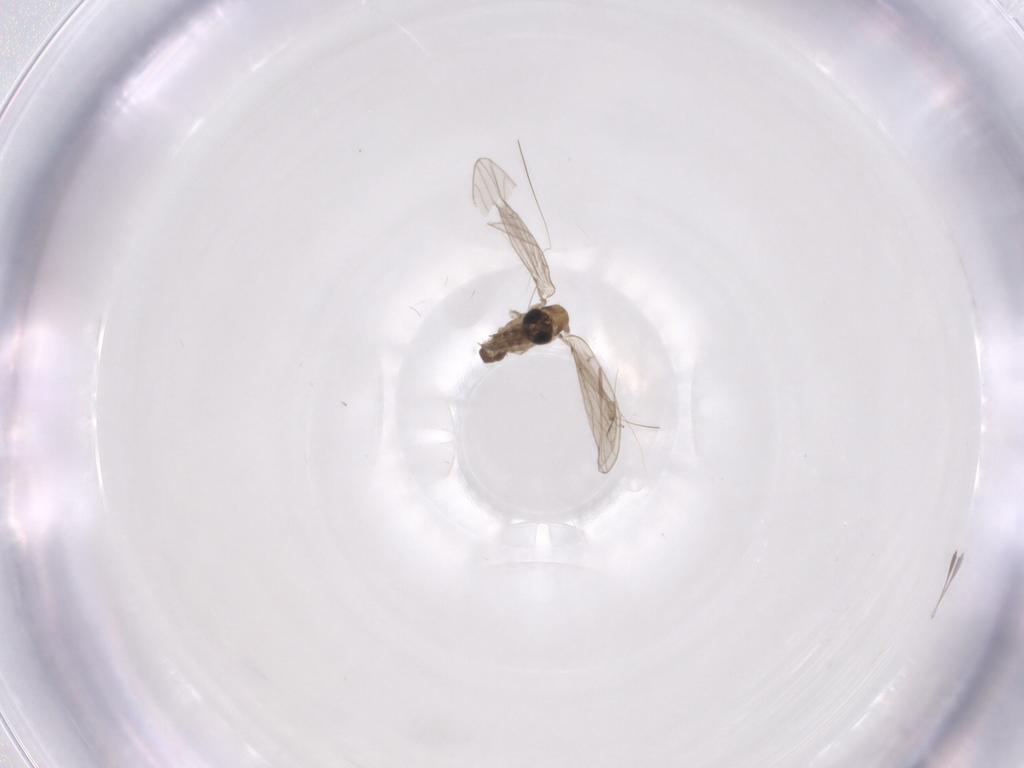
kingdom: Animalia
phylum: Arthropoda
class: Insecta
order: Diptera
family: Psychodidae
